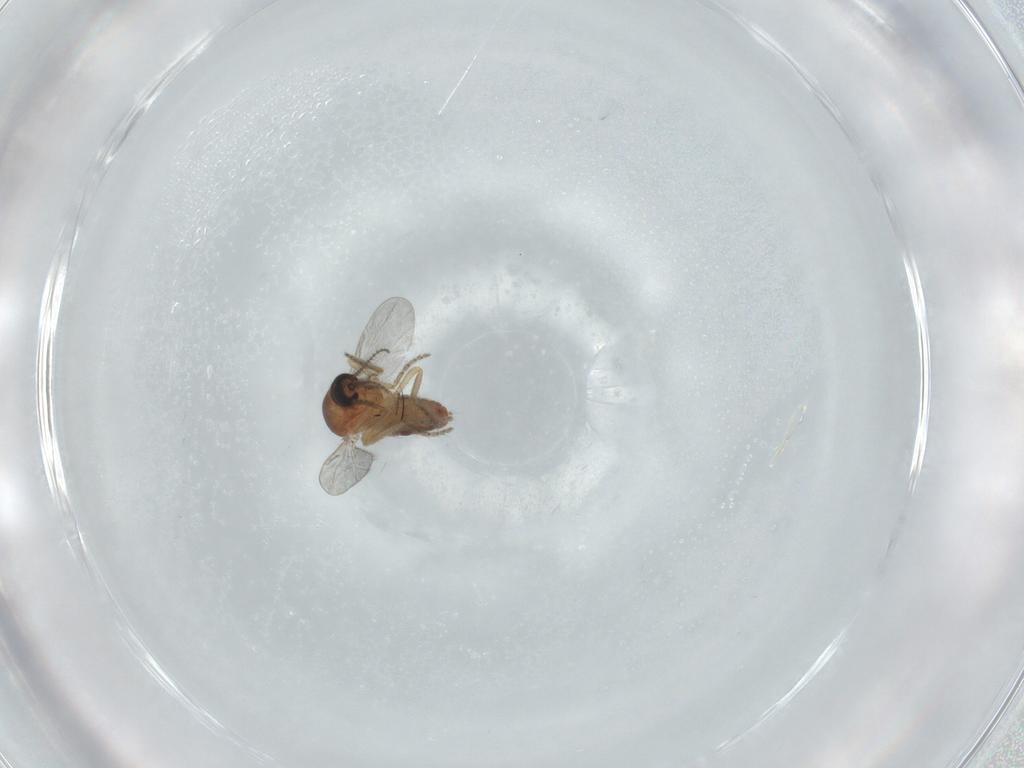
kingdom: Animalia
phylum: Arthropoda
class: Insecta
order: Diptera
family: Ceratopogonidae
